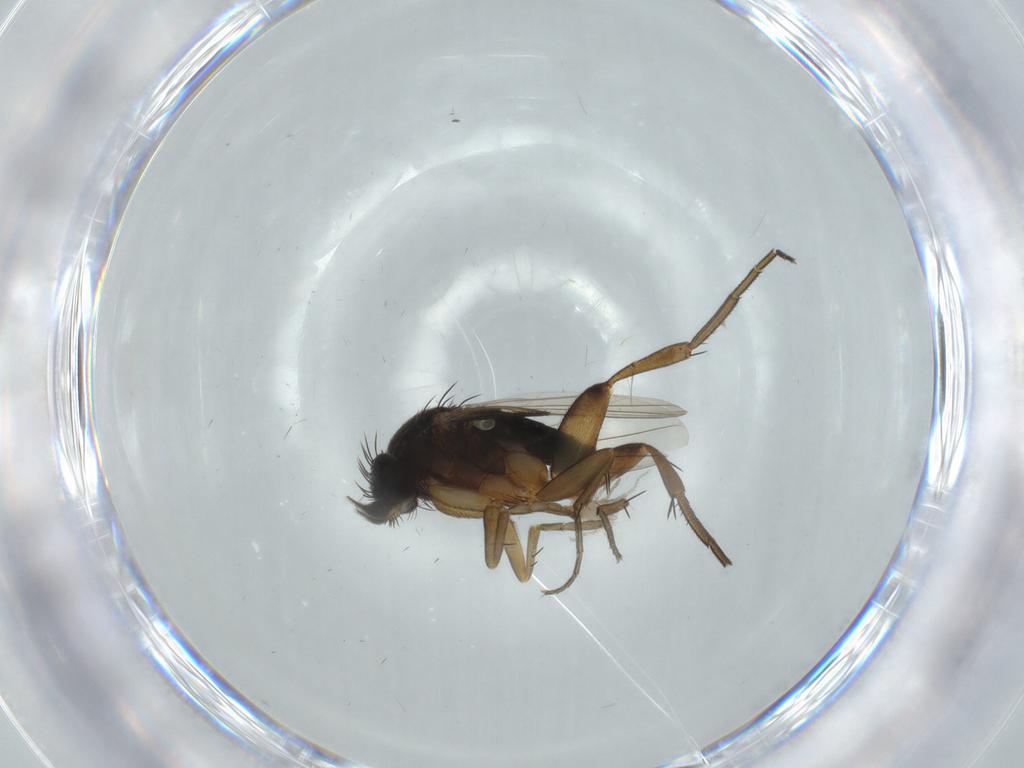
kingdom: Animalia
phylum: Arthropoda
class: Insecta
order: Diptera
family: Phoridae
